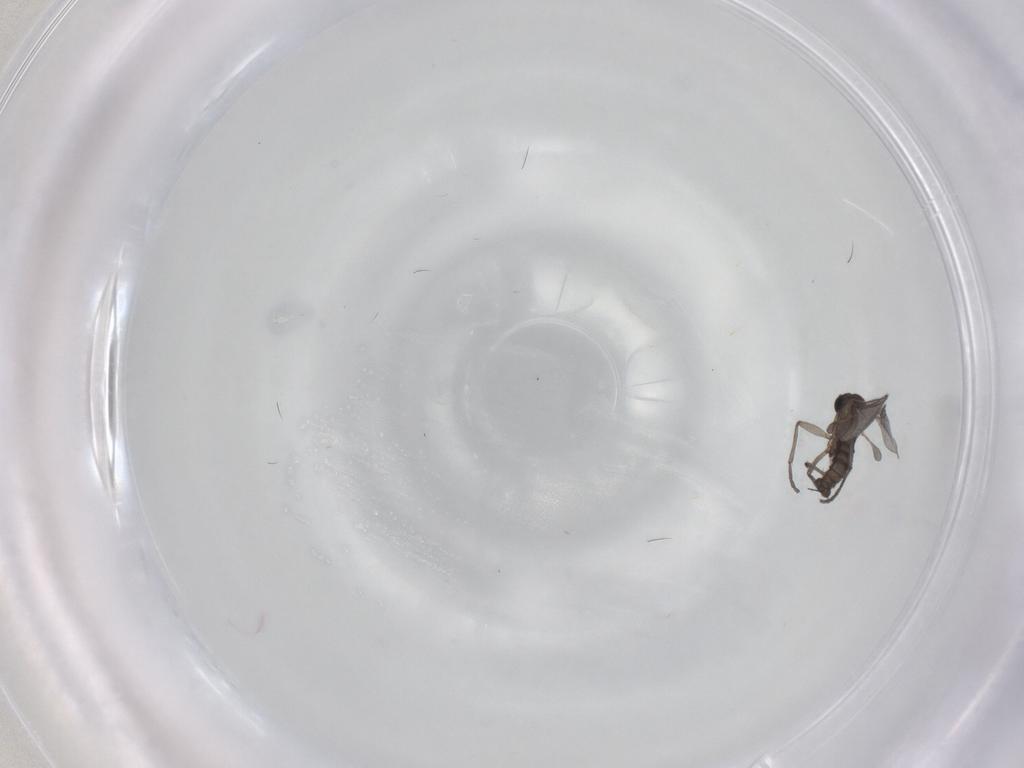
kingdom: Animalia
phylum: Arthropoda
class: Insecta
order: Diptera
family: Sciaridae
